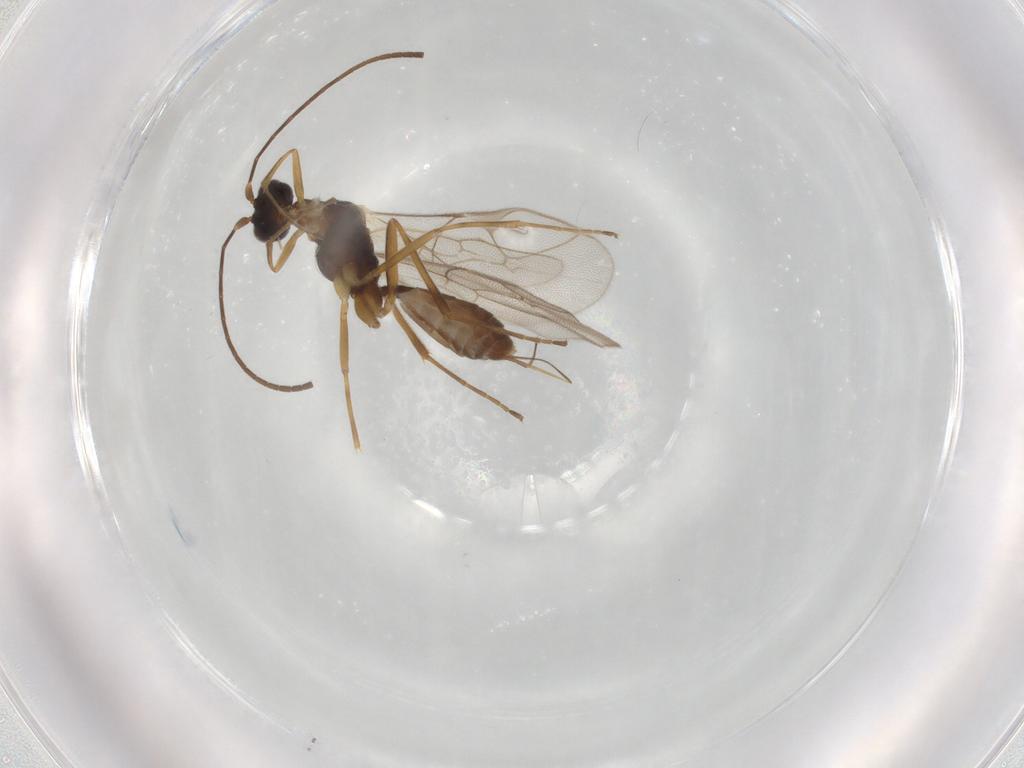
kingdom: Animalia
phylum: Arthropoda
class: Insecta
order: Hymenoptera
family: Ichneumonidae
